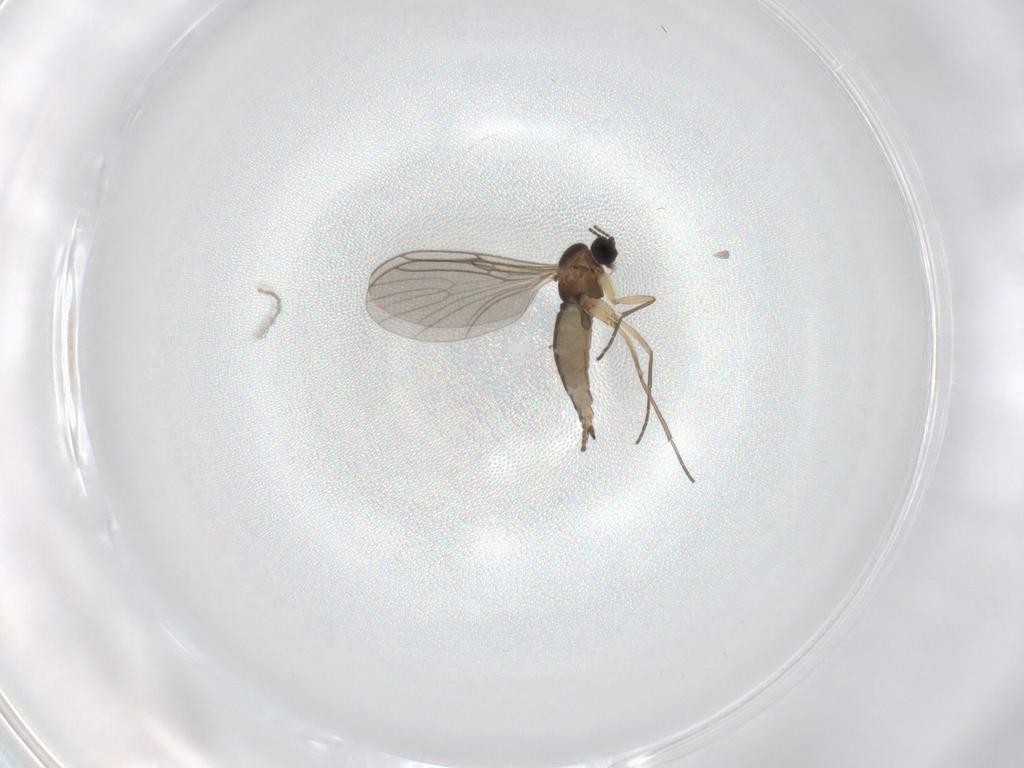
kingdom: Animalia
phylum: Arthropoda
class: Insecta
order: Diptera
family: Sciaridae
